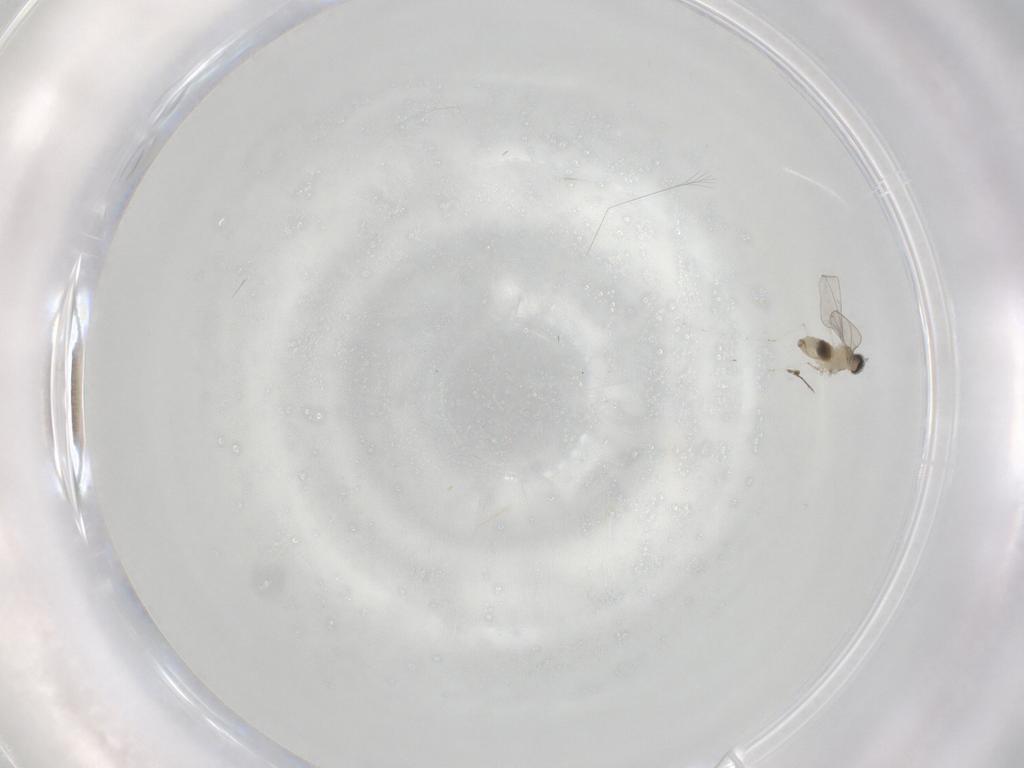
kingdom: Animalia
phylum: Arthropoda
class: Insecta
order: Diptera
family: Cecidomyiidae
